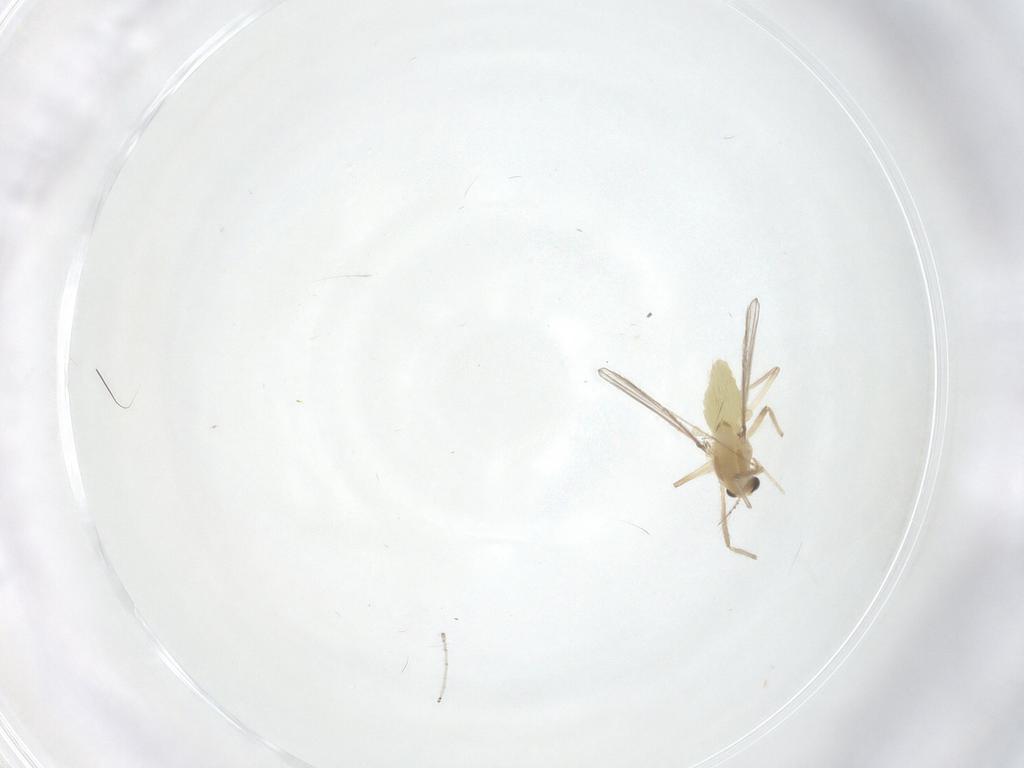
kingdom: Animalia
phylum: Arthropoda
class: Insecta
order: Diptera
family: Chironomidae
